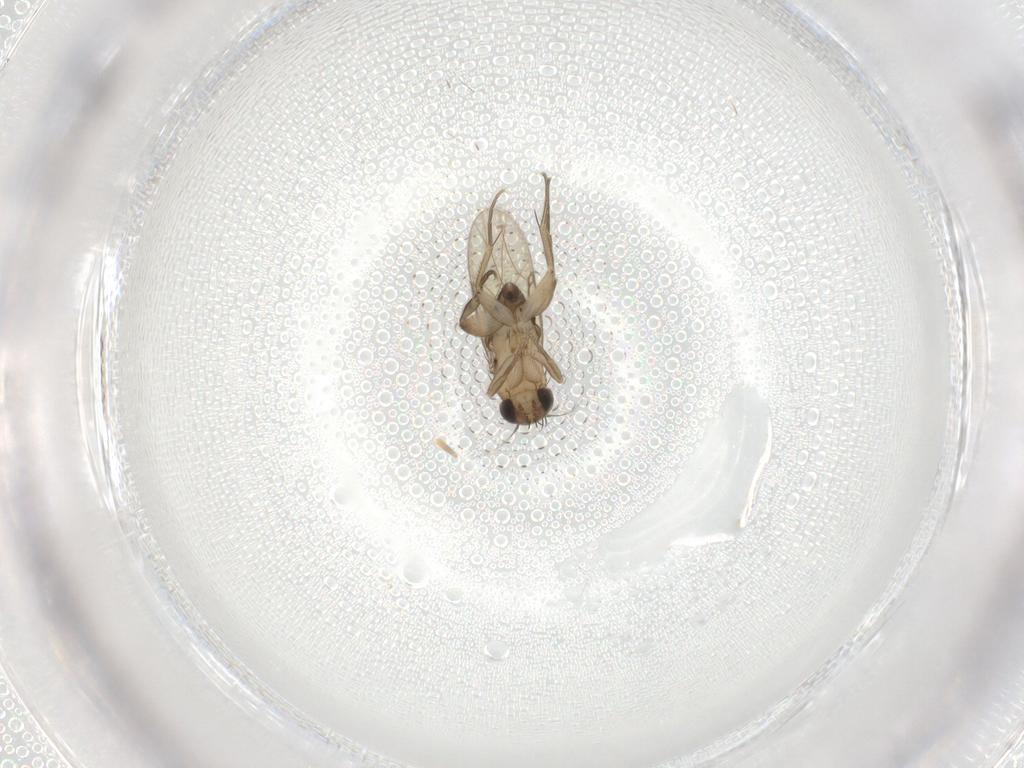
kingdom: Animalia
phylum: Arthropoda
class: Insecta
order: Diptera
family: Phoridae
